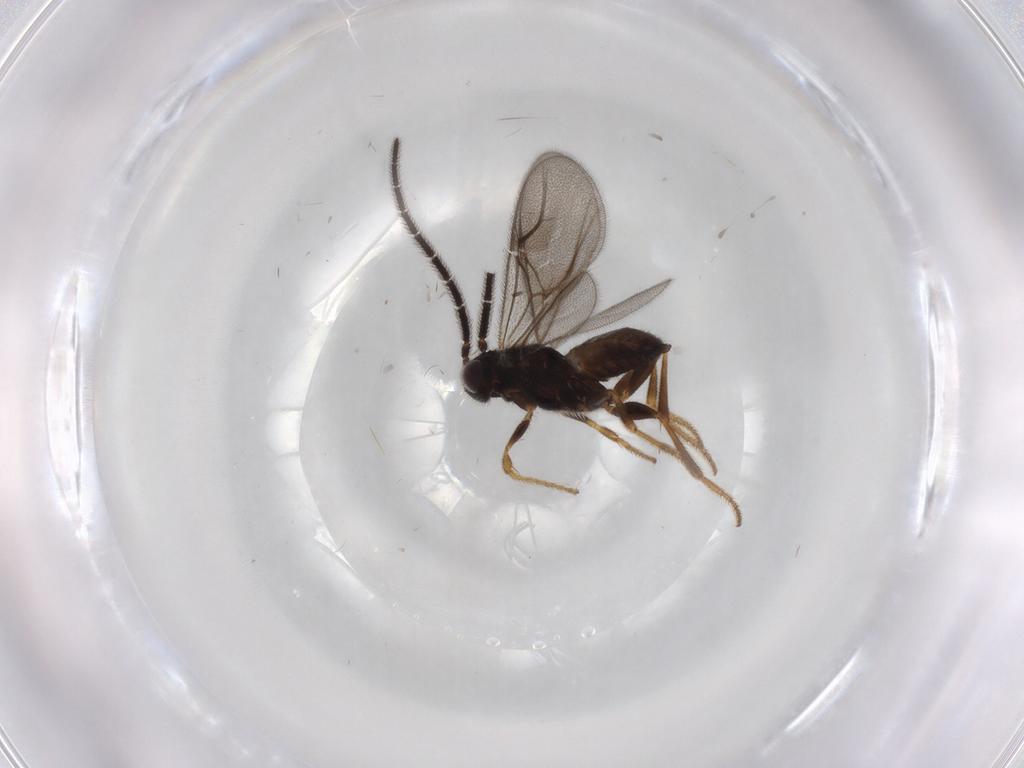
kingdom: Animalia
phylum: Arthropoda
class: Insecta
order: Hymenoptera
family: Dryinidae
